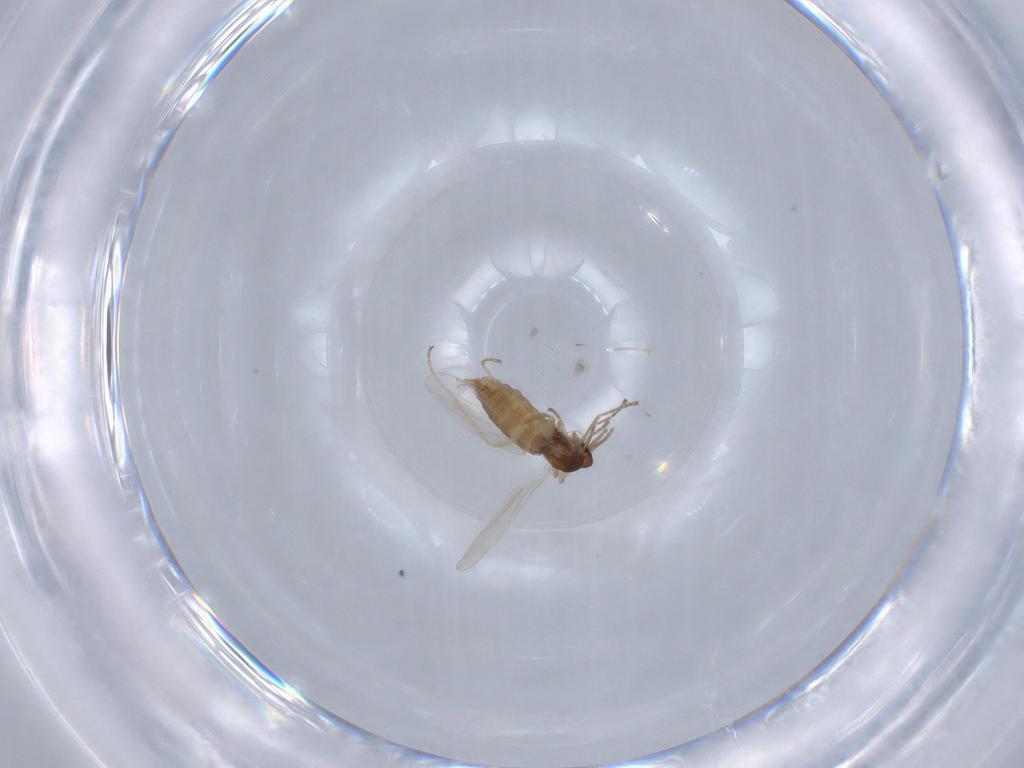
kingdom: Animalia
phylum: Arthropoda
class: Insecta
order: Diptera
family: Cecidomyiidae
